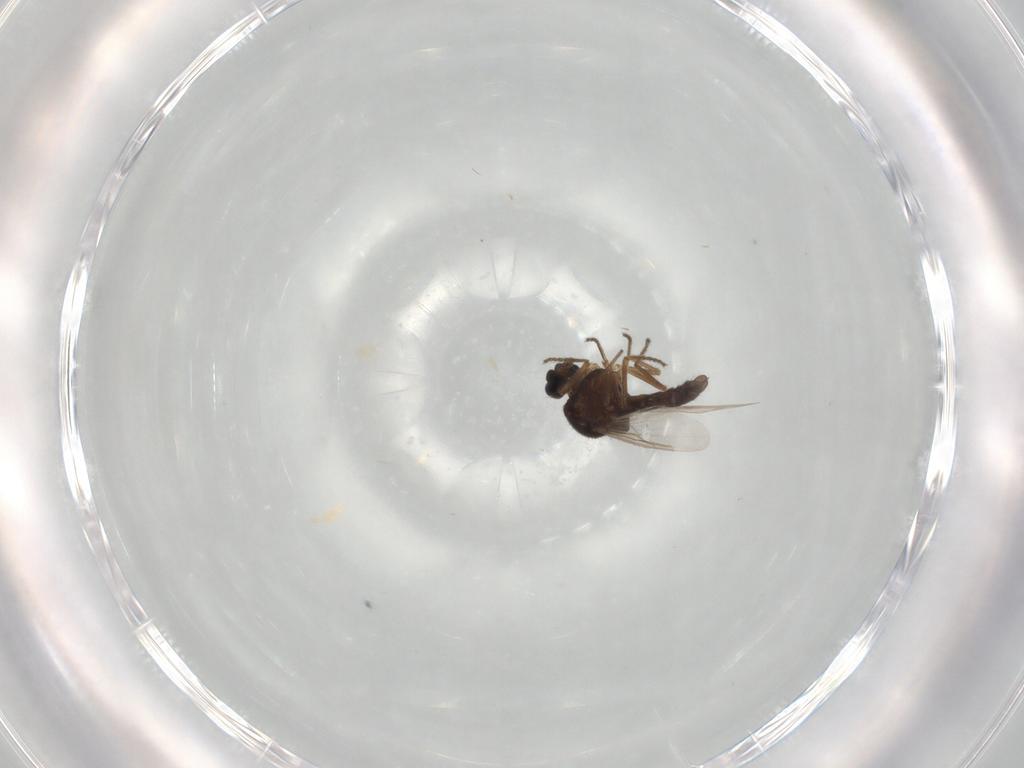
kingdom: Animalia
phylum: Arthropoda
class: Insecta
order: Diptera
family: Ceratopogonidae
